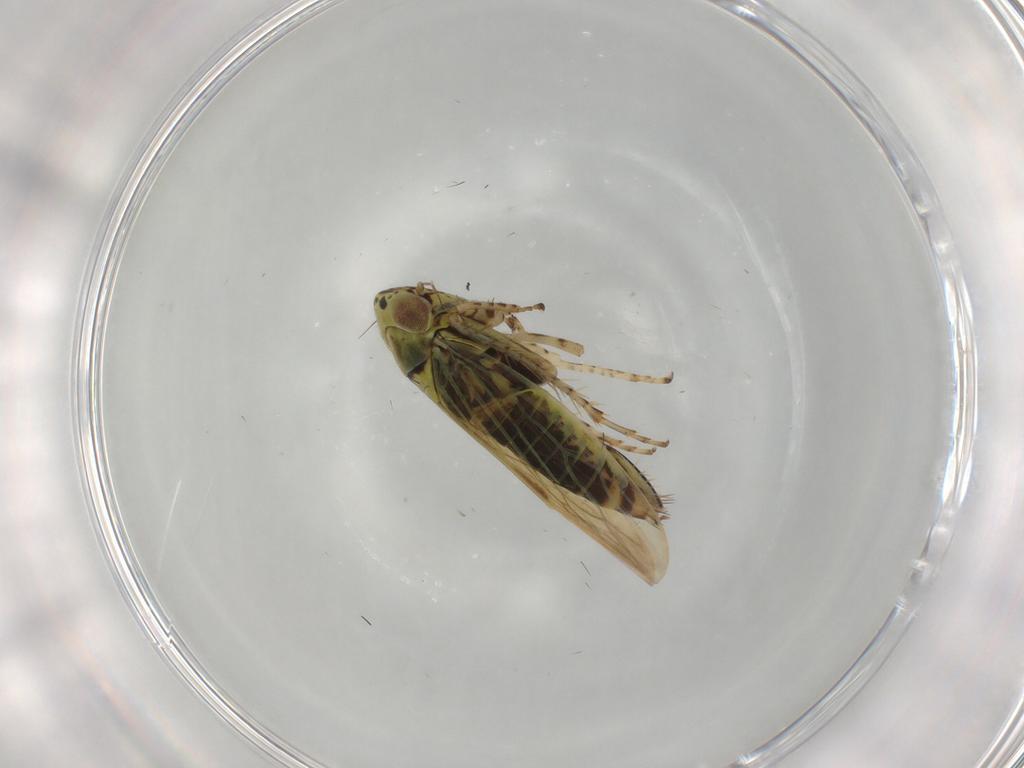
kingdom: Animalia
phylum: Arthropoda
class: Insecta
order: Hemiptera
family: Cicadellidae
